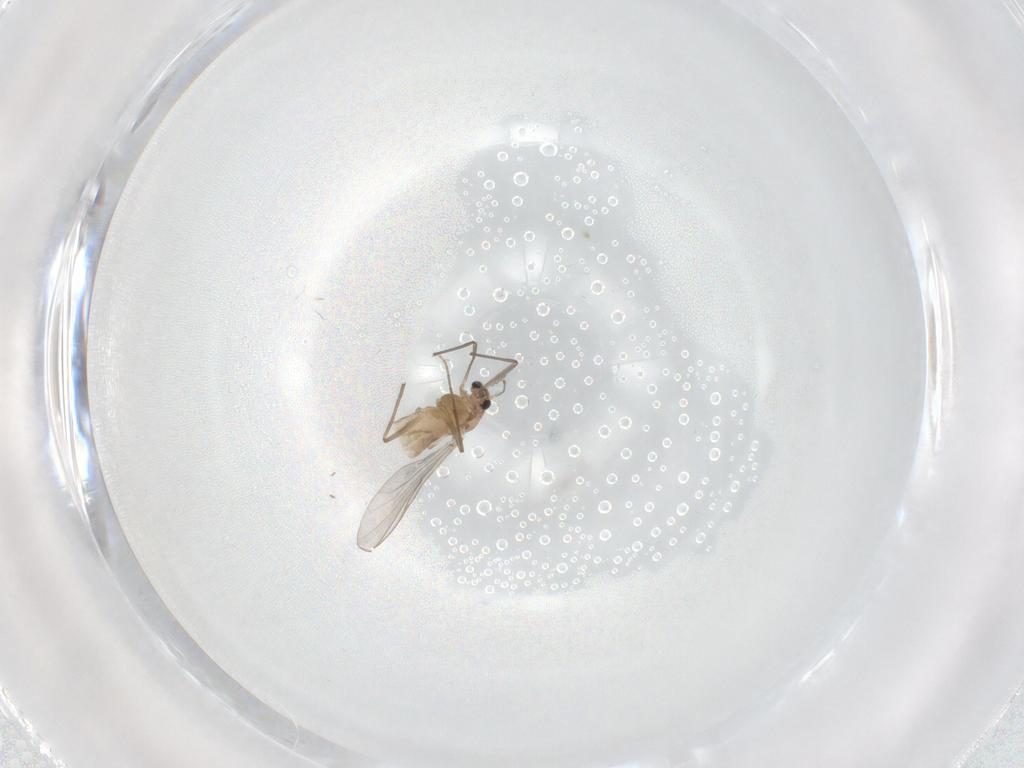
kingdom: Animalia
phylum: Arthropoda
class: Insecta
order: Diptera
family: Chironomidae
